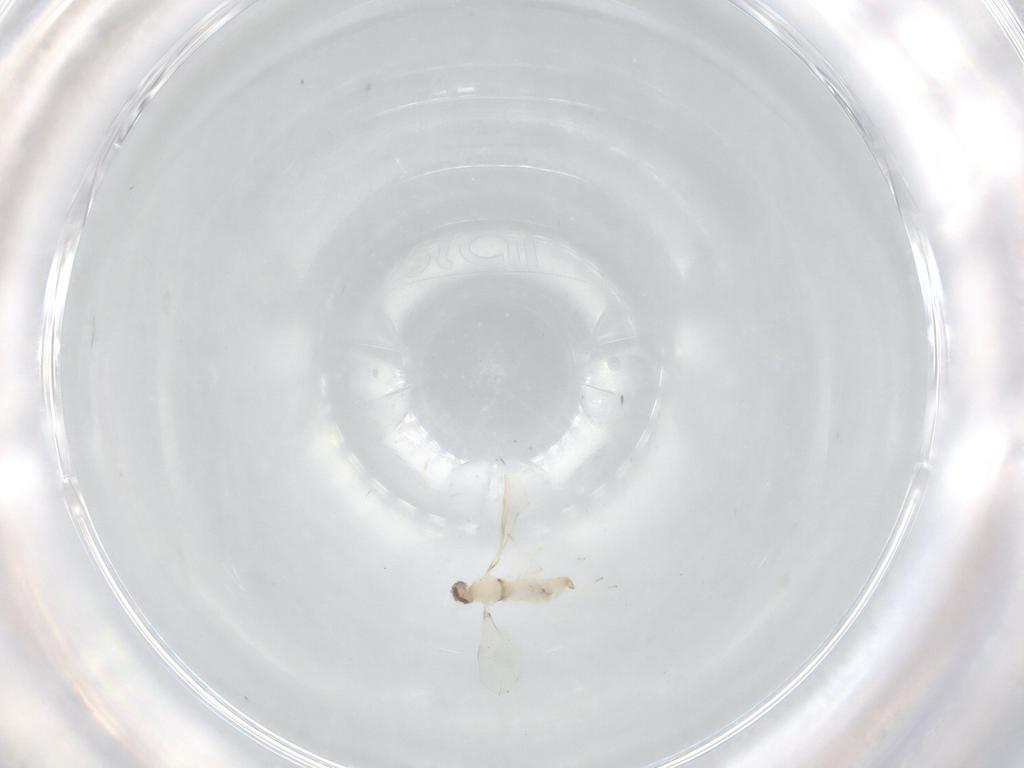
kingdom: Animalia
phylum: Arthropoda
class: Insecta
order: Diptera
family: Cecidomyiidae
